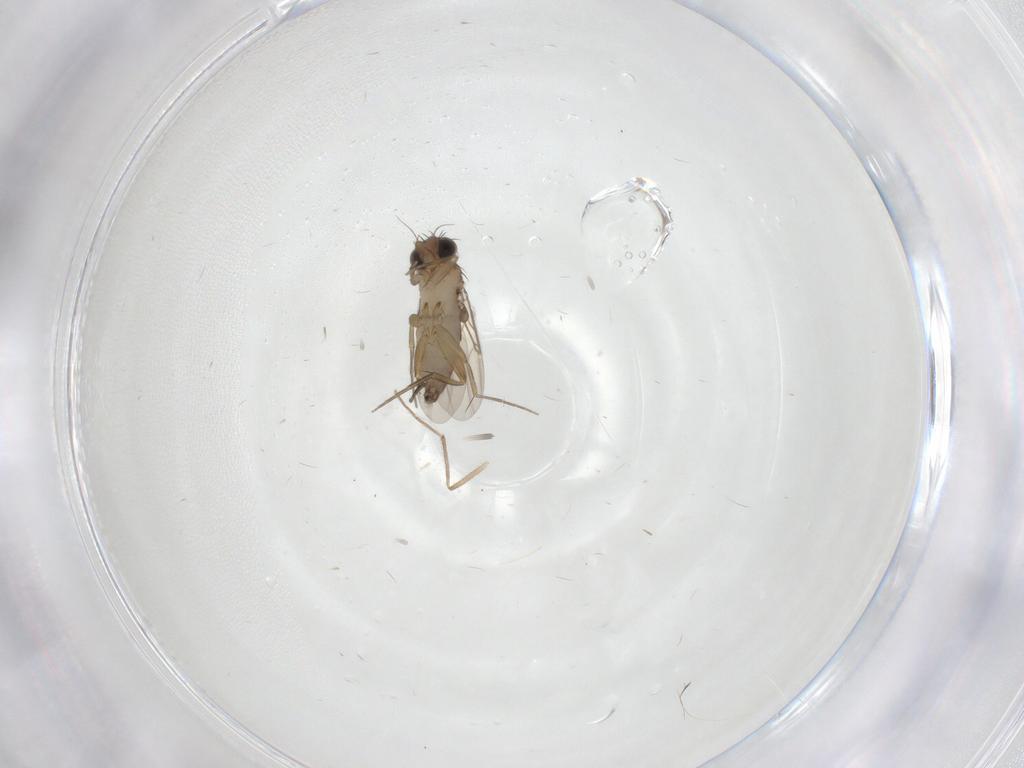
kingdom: Animalia
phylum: Arthropoda
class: Insecta
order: Diptera
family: Phoridae
